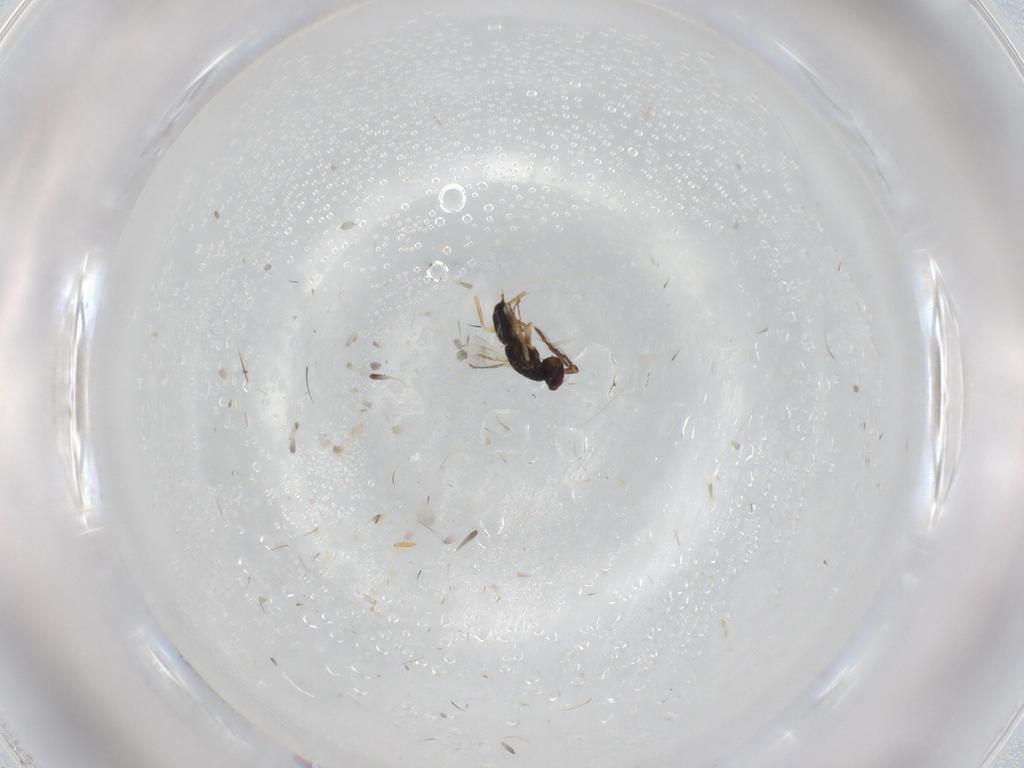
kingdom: Animalia
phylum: Arthropoda
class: Insecta
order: Hymenoptera
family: Eulophidae
